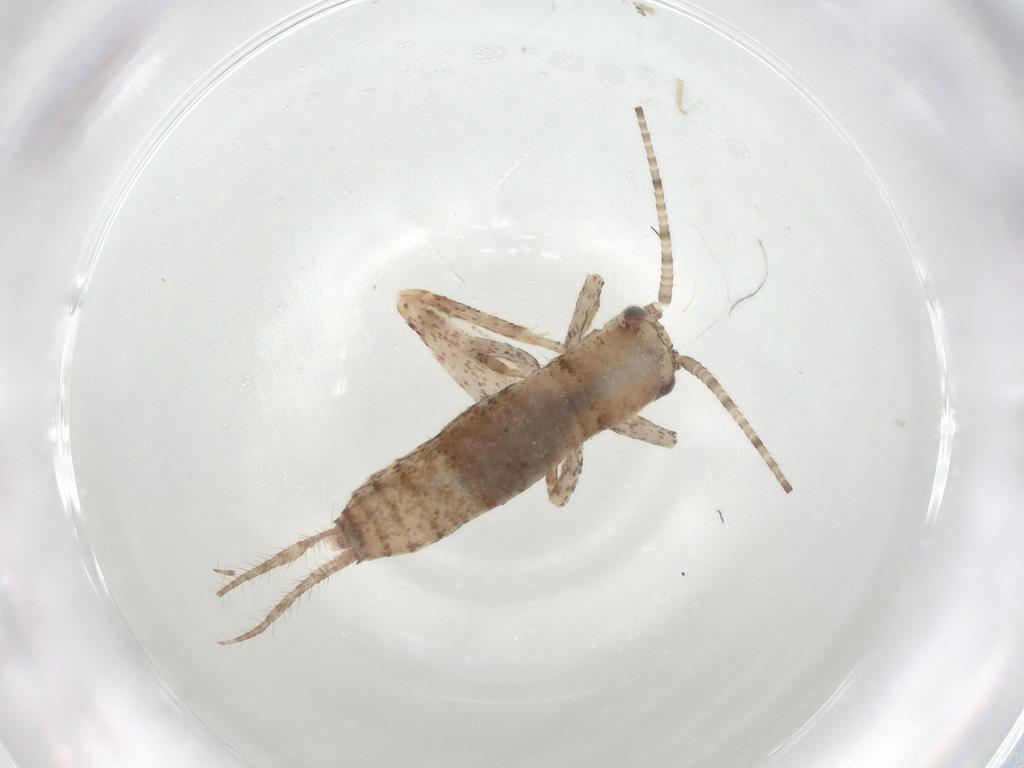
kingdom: Animalia
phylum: Arthropoda
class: Insecta
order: Orthoptera
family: Mogoplistidae
